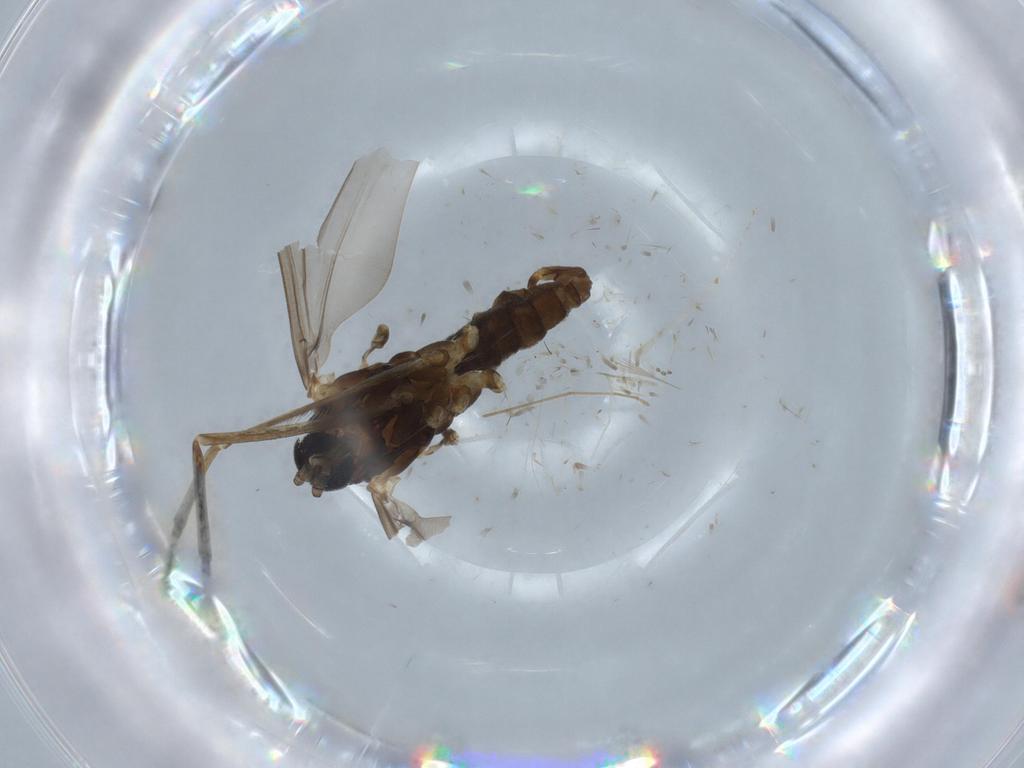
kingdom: Animalia
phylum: Arthropoda
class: Insecta
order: Diptera
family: Cecidomyiidae
